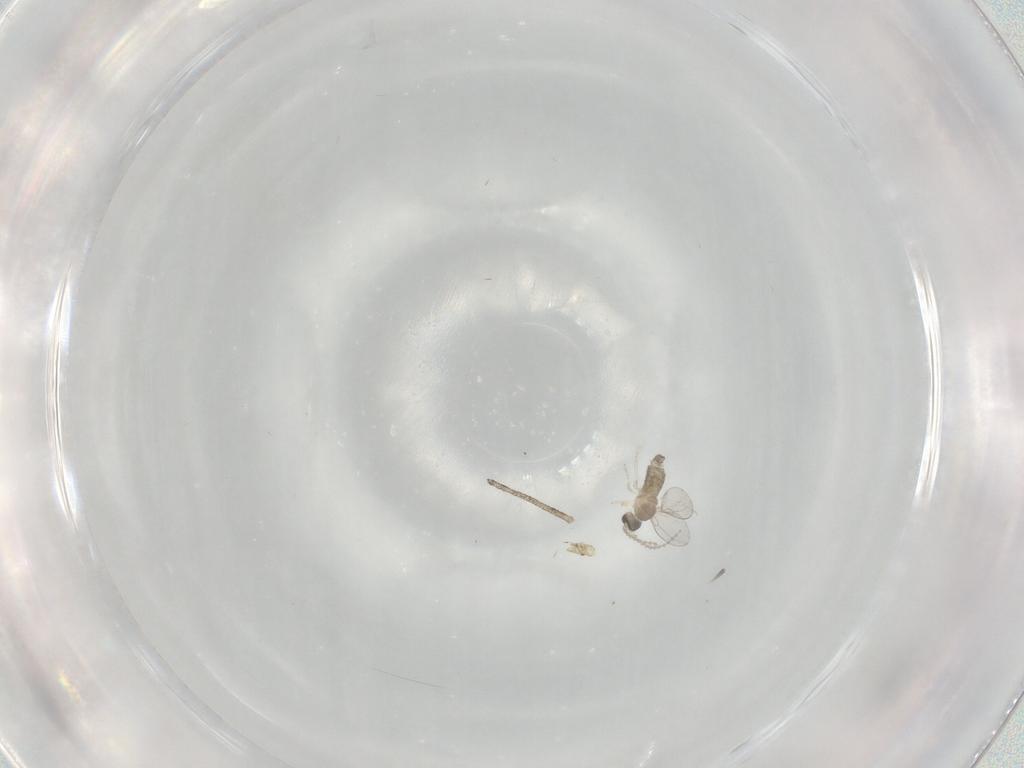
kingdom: Animalia
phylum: Arthropoda
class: Insecta
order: Diptera
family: Cecidomyiidae
